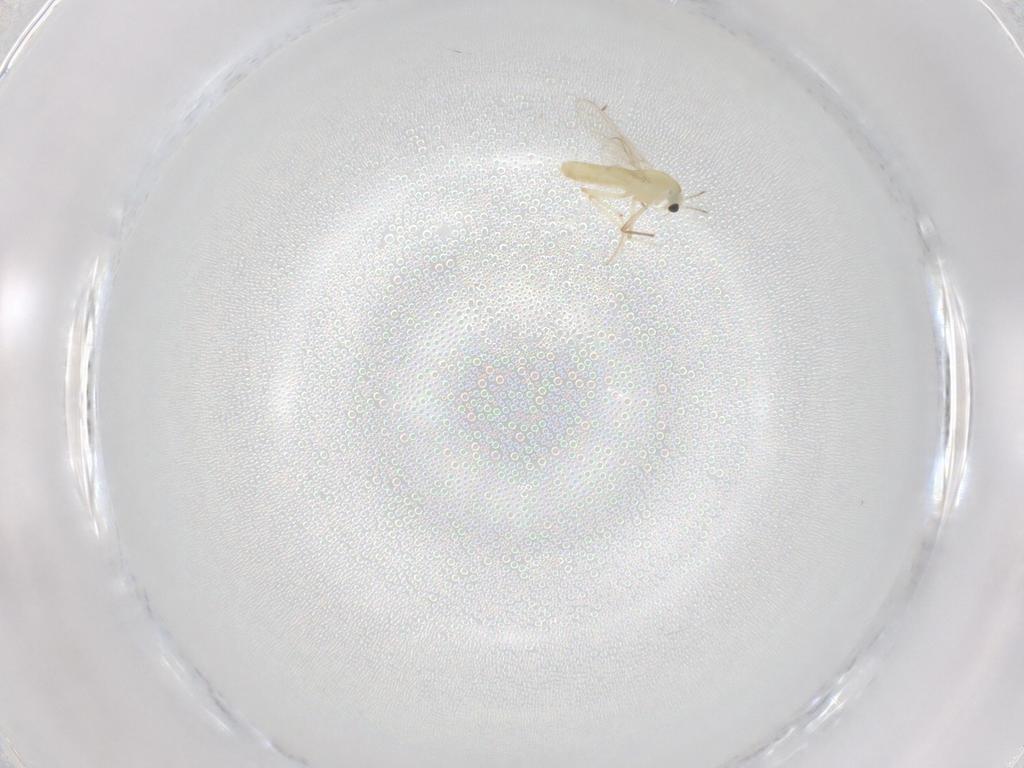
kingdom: Animalia
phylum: Arthropoda
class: Insecta
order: Diptera
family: Chironomidae
